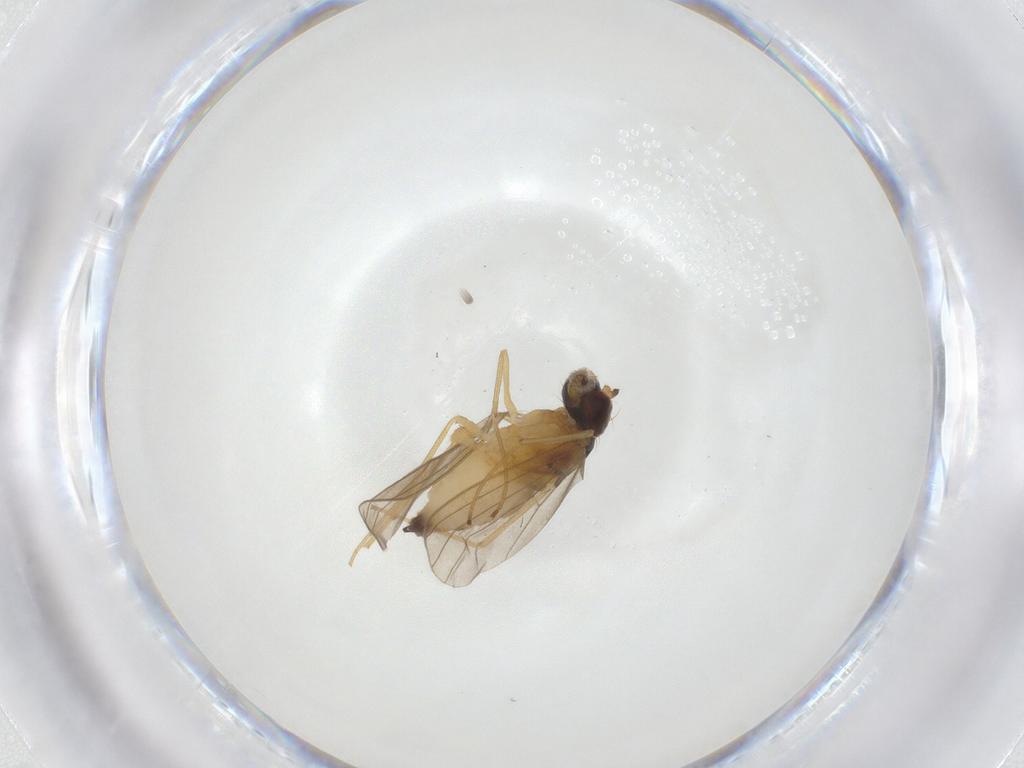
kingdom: Animalia
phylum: Arthropoda
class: Insecta
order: Diptera
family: Dolichopodidae
